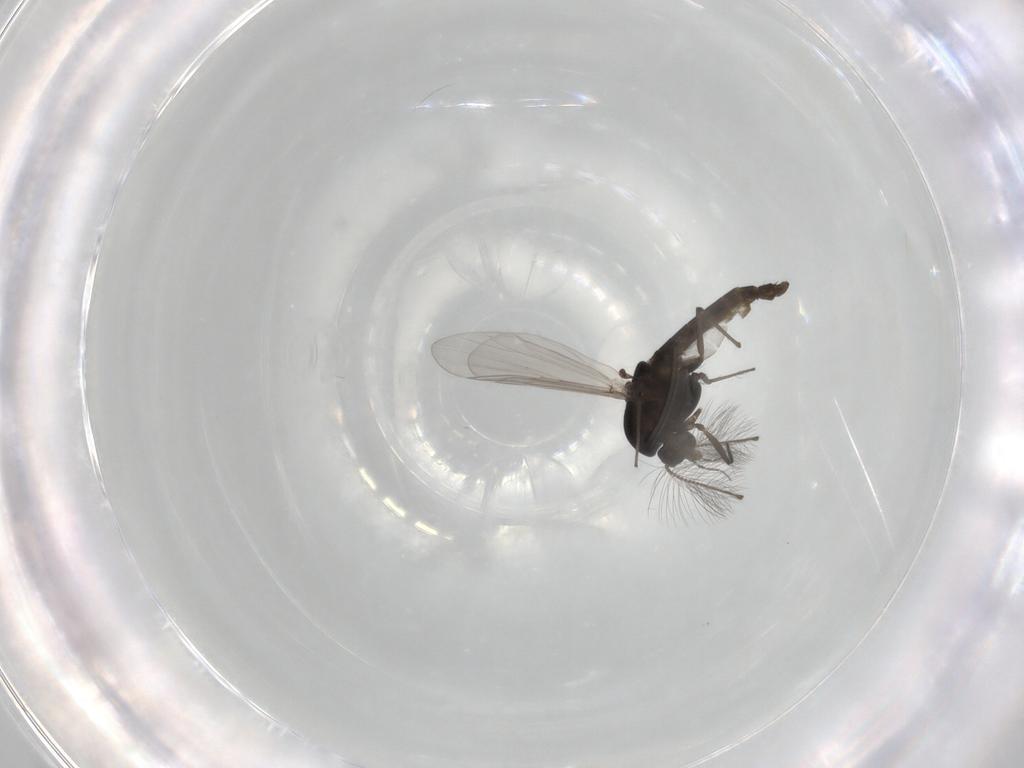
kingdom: Animalia
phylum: Arthropoda
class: Insecta
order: Diptera
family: Chironomidae
